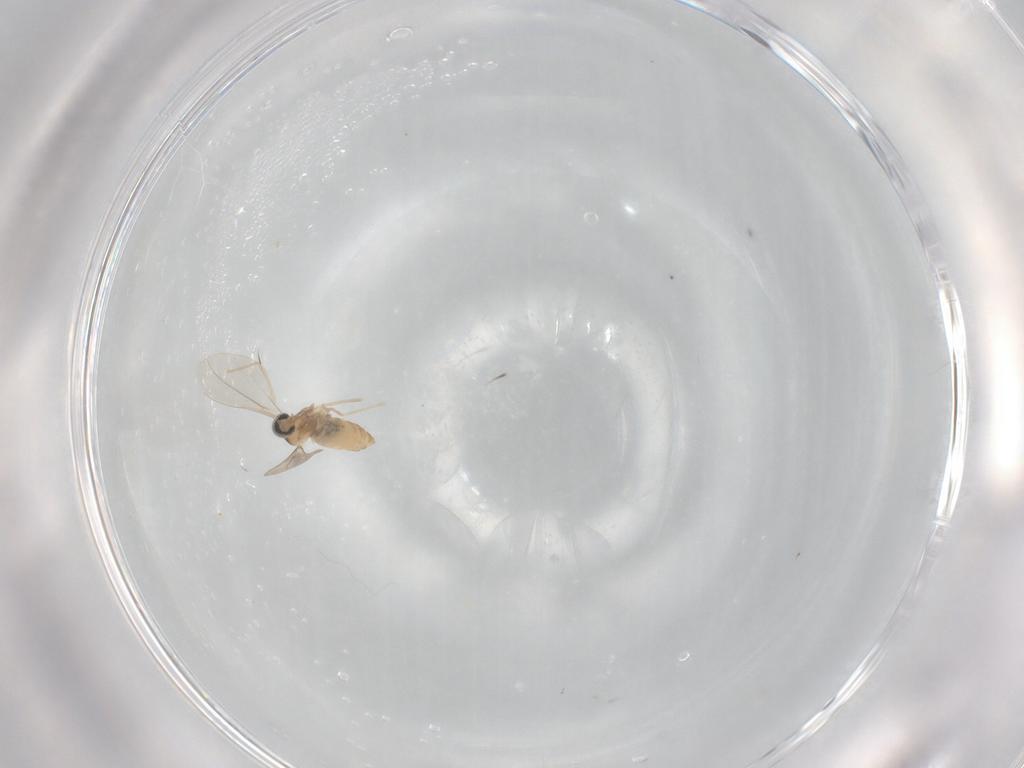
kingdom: Animalia
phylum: Arthropoda
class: Insecta
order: Diptera
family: Cecidomyiidae
